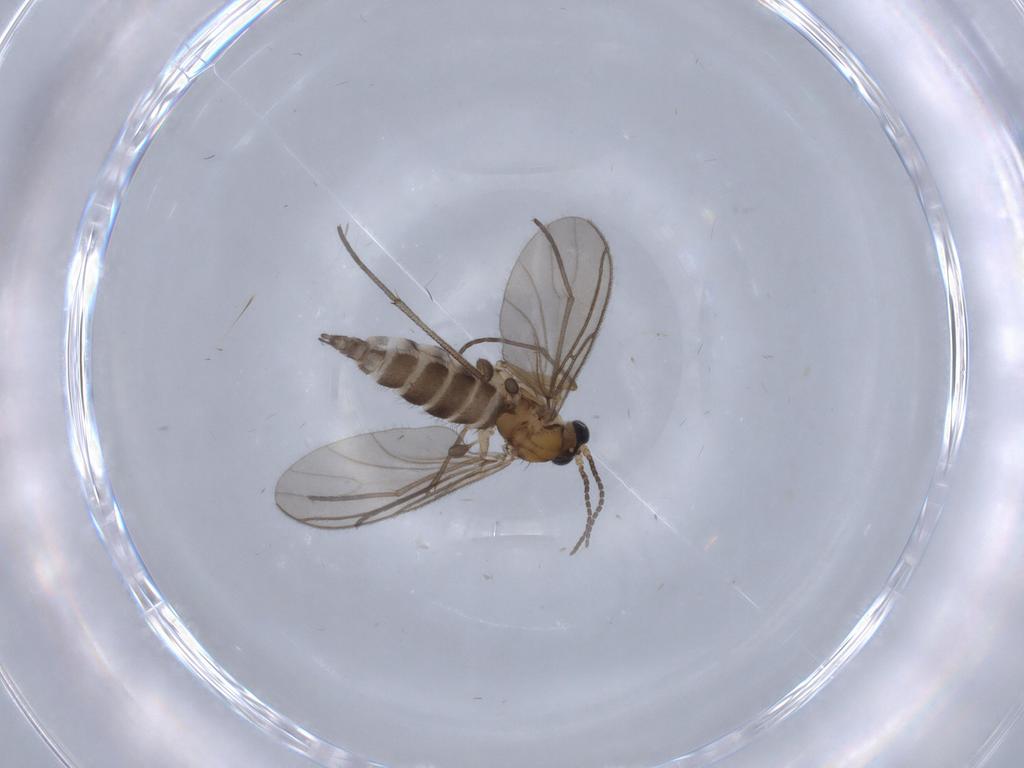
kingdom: Animalia
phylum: Arthropoda
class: Insecta
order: Diptera
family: Sciaridae
